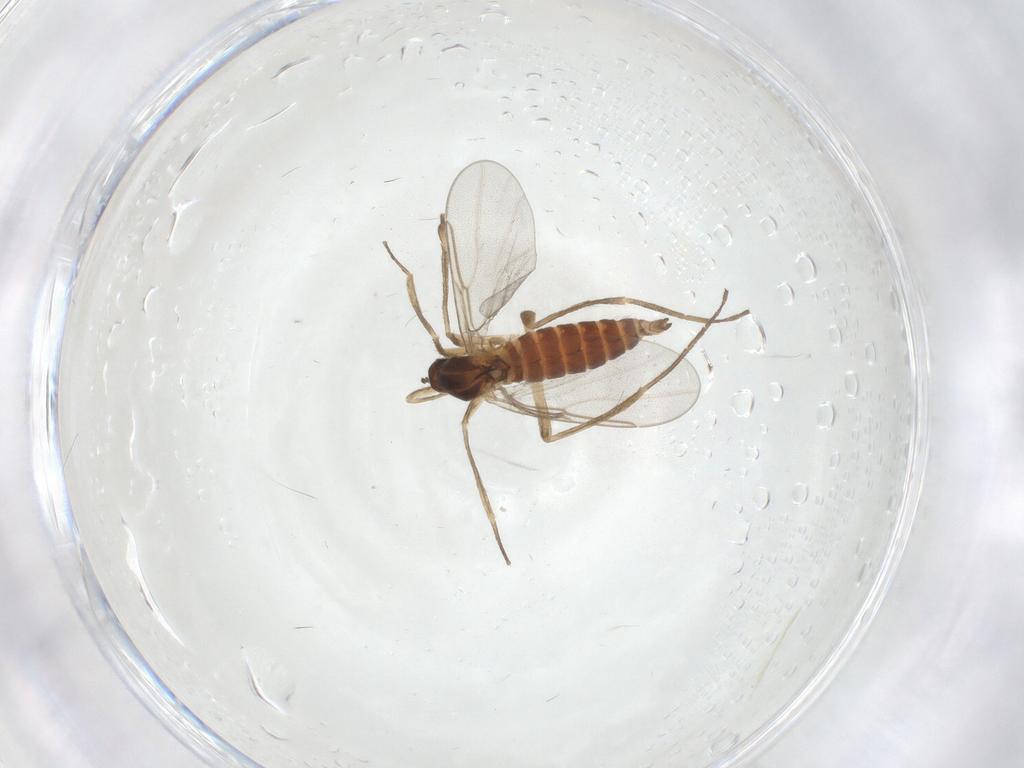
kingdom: Animalia
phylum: Arthropoda
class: Insecta
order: Diptera
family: Cecidomyiidae
